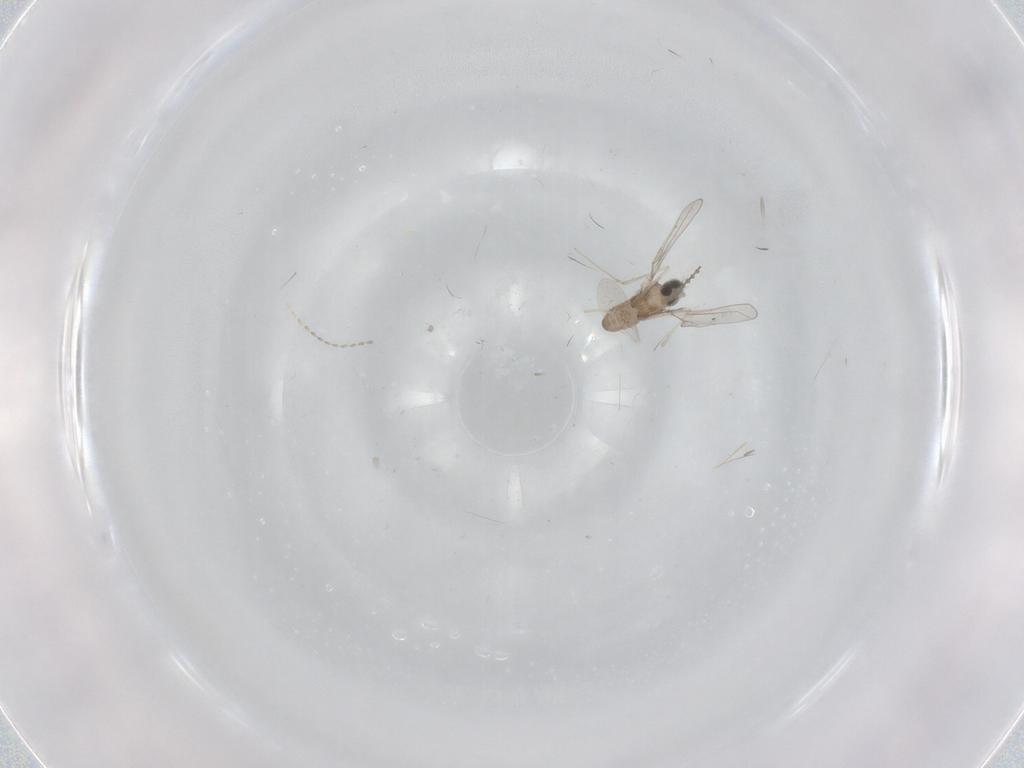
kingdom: Animalia
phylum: Arthropoda
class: Insecta
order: Diptera
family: Cecidomyiidae
